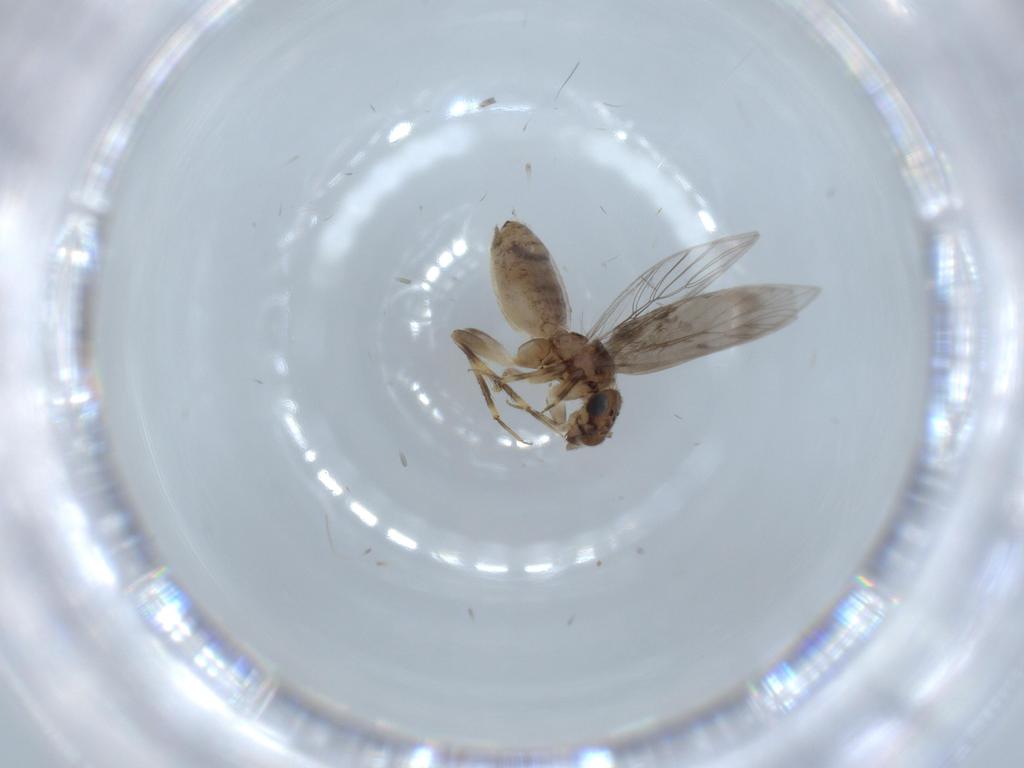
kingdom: Animalia
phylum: Arthropoda
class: Insecta
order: Psocodea
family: Lepidopsocidae
